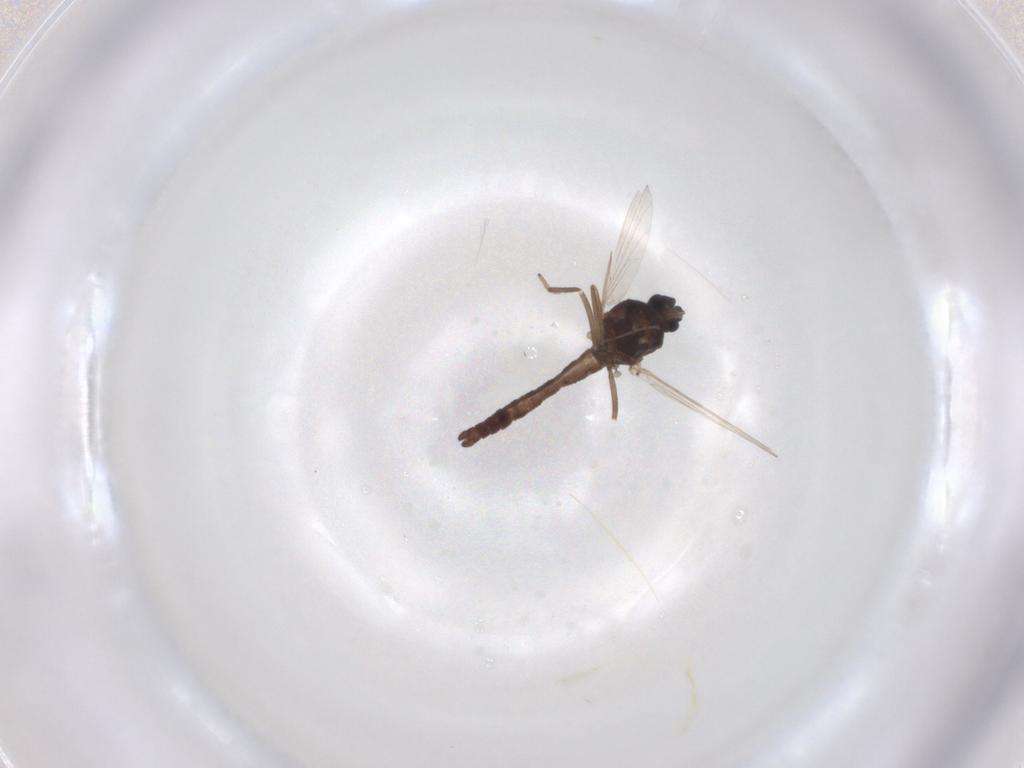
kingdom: Animalia
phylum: Arthropoda
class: Insecta
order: Diptera
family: Ceratopogonidae
